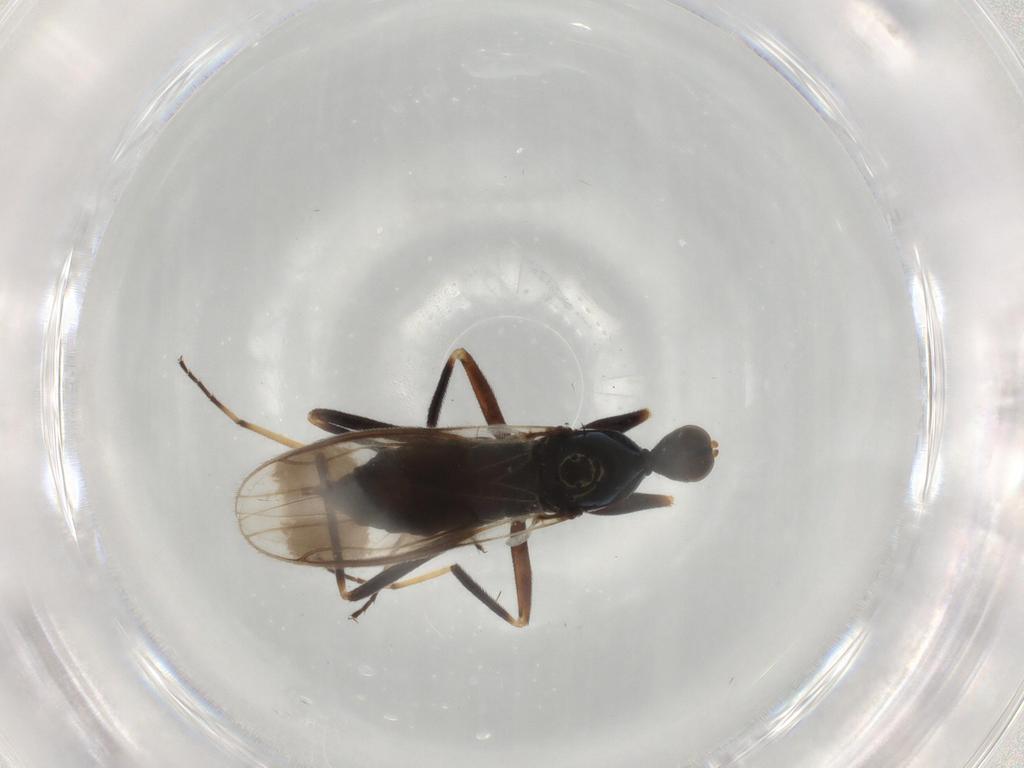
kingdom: Animalia
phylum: Arthropoda
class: Insecta
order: Diptera
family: Hybotidae
